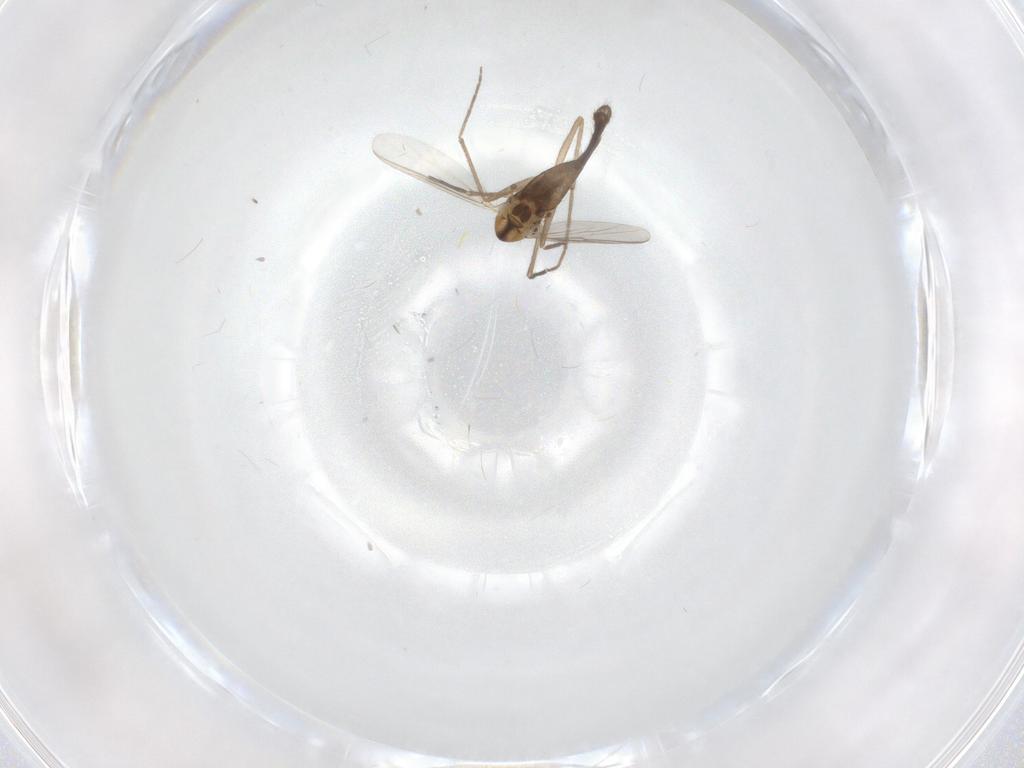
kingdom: Animalia
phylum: Arthropoda
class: Insecta
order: Diptera
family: Chironomidae
